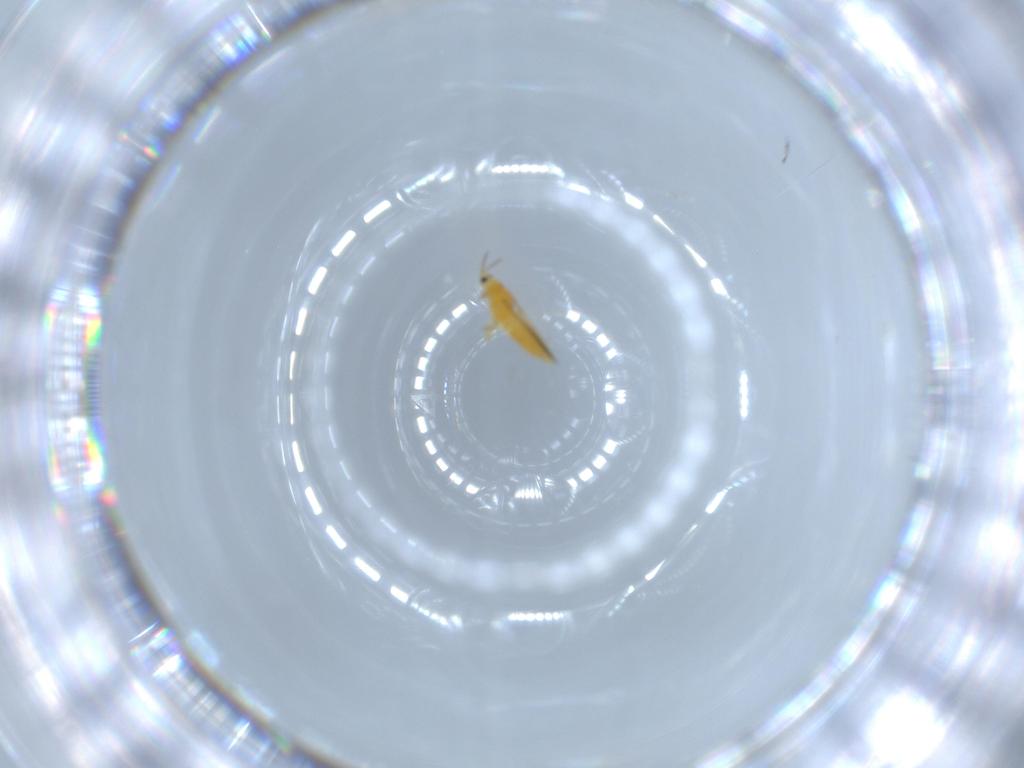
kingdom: Animalia
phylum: Arthropoda
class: Insecta
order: Thysanoptera
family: Thripidae
